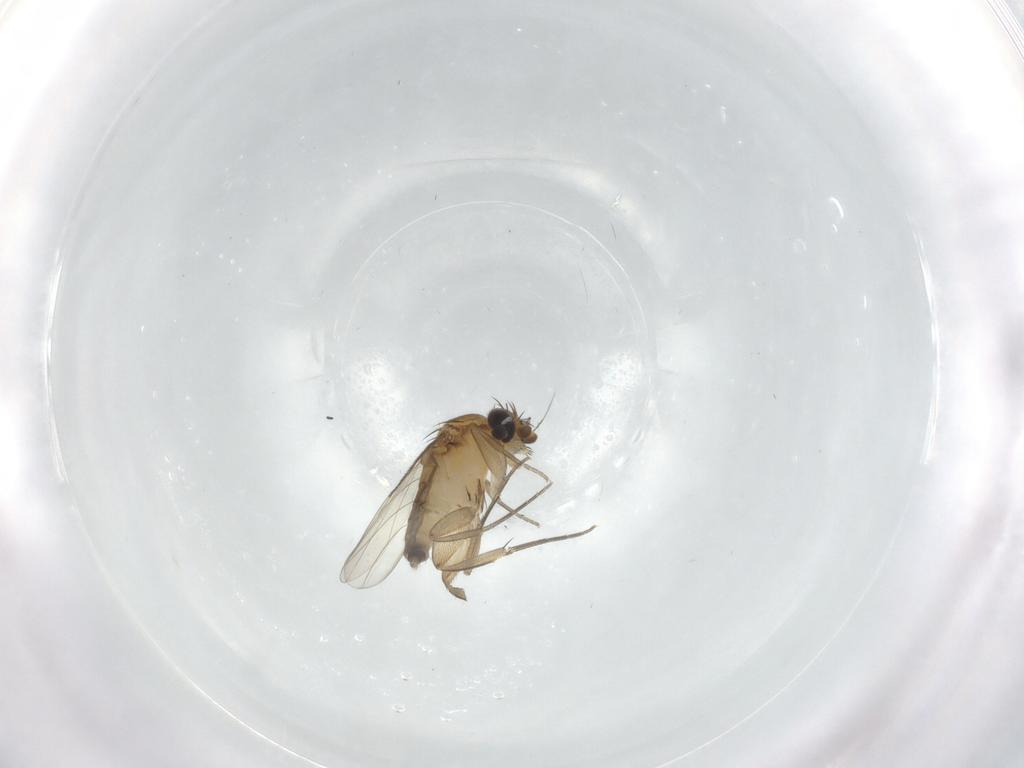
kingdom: Animalia
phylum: Arthropoda
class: Insecta
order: Diptera
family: Phoridae
